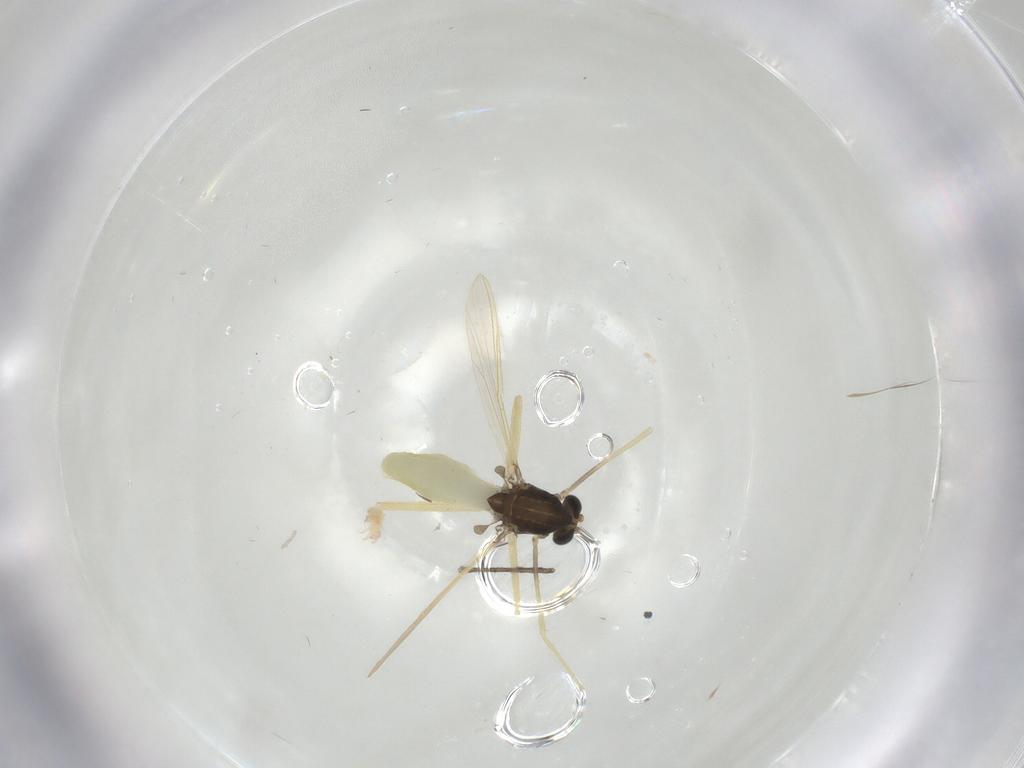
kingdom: Animalia
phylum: Arthropoda
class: Insecta
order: Diptera
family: Chironomidae
